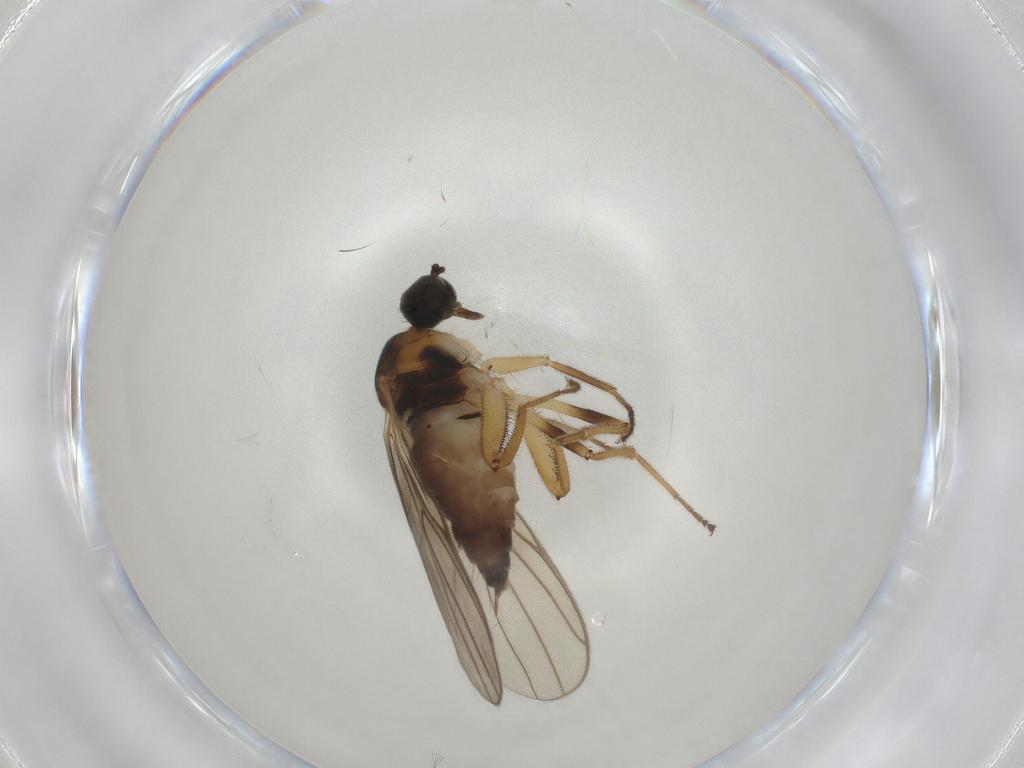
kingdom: Animalia
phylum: Arthropoda
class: Insecta
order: Diptera
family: Hybotidae
